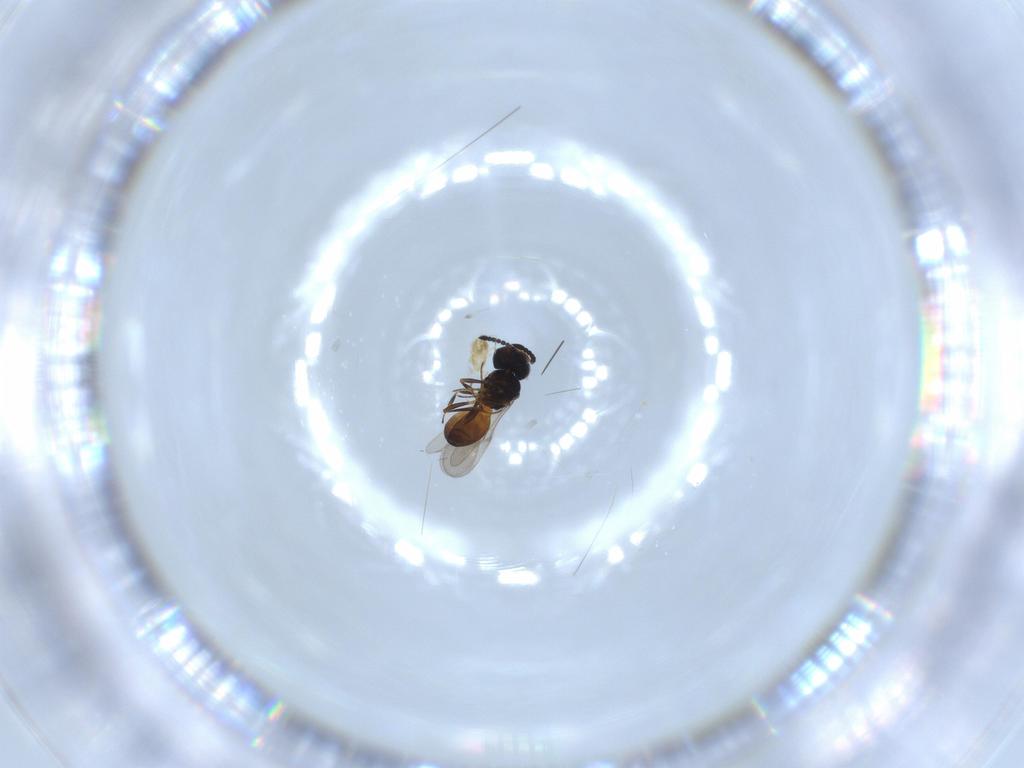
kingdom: Animalia
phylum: Arthropoda
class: Insecta
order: Hymenoptera
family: Scelionidae
